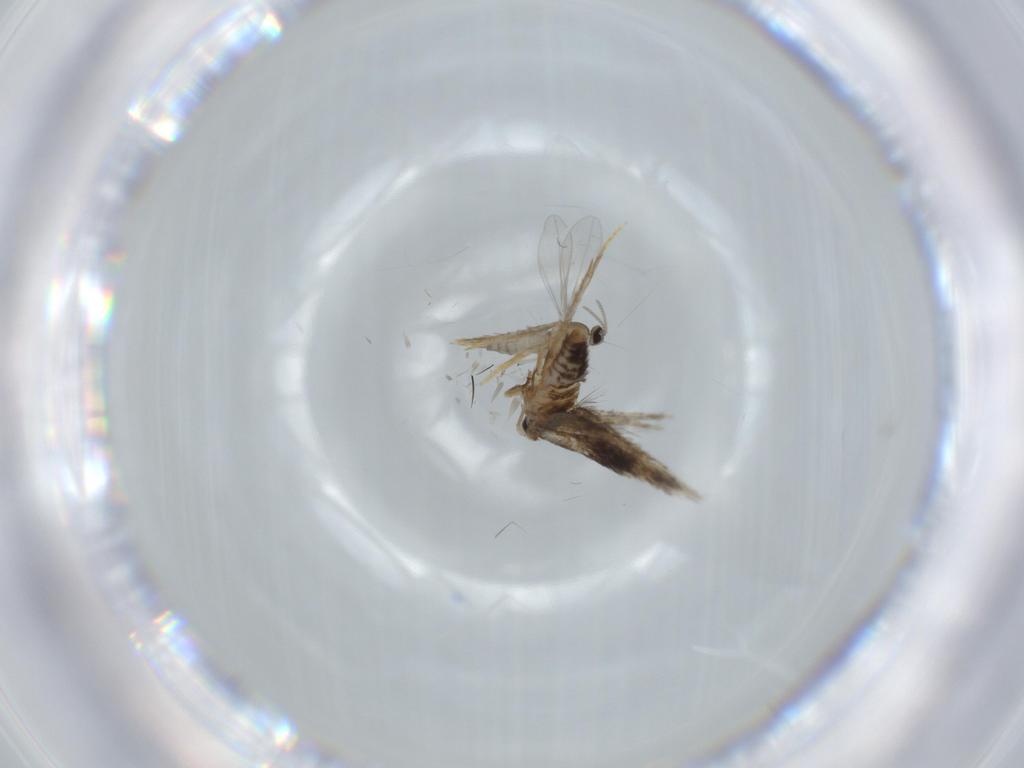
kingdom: Animalia
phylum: Arthropoda
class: Insecta
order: Lepidoptera
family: Nepticulidae
